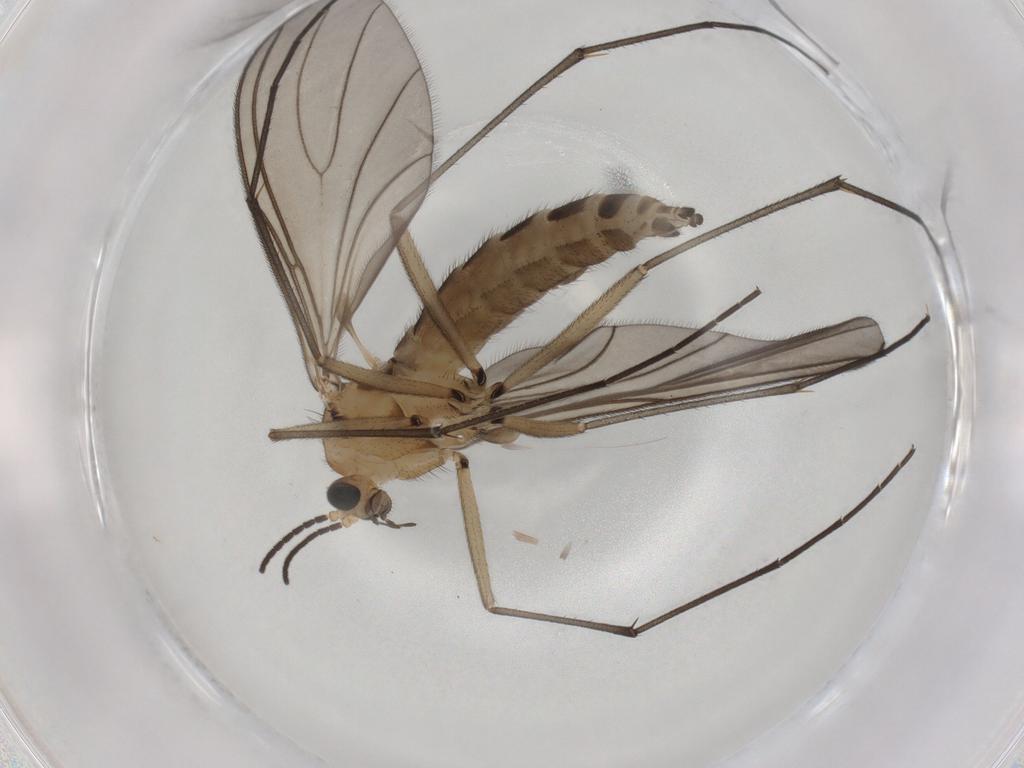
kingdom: Animalia
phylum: Arthropoda
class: Insecta
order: Diptera
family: Sciaridae
